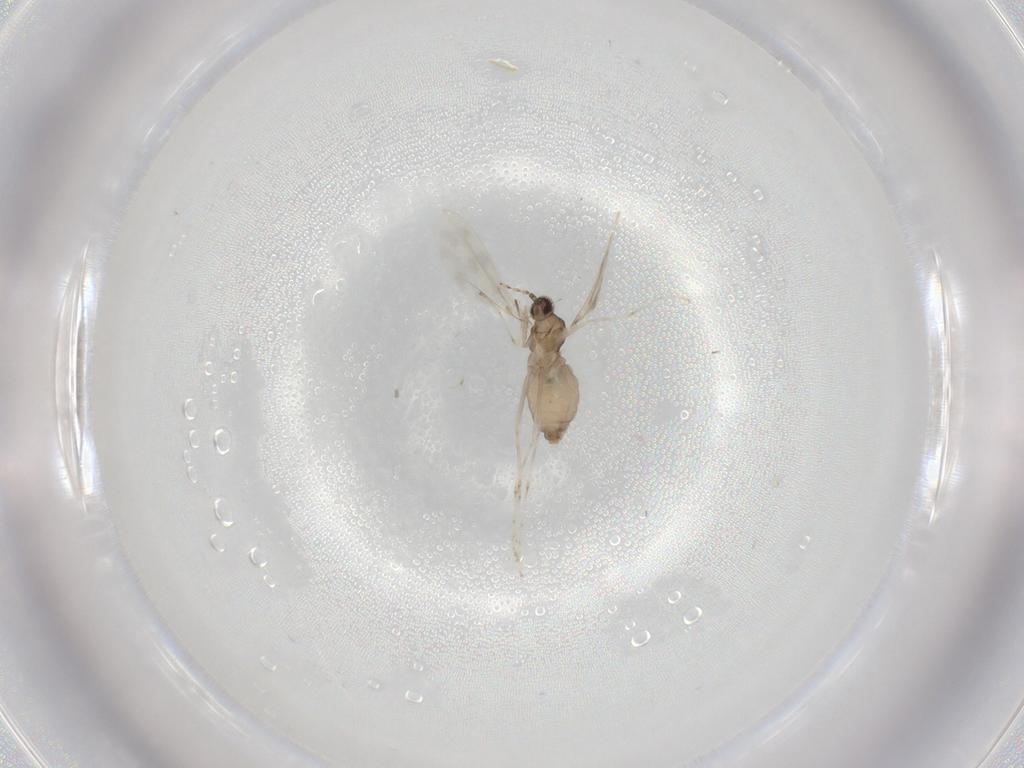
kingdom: Animalia
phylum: Arthropoda
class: Insecta
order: Diptera
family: Cecidomyiidae
